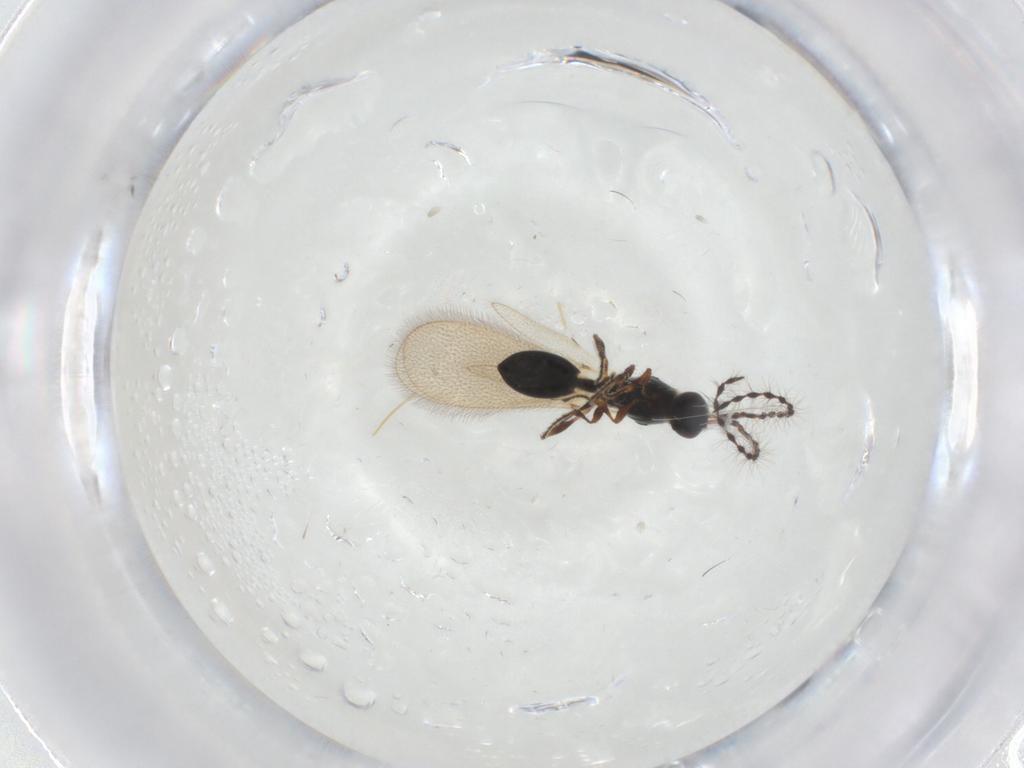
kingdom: Animalia
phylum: Arthropoda
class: Insecta
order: Hymenoptera
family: Diapriidae
